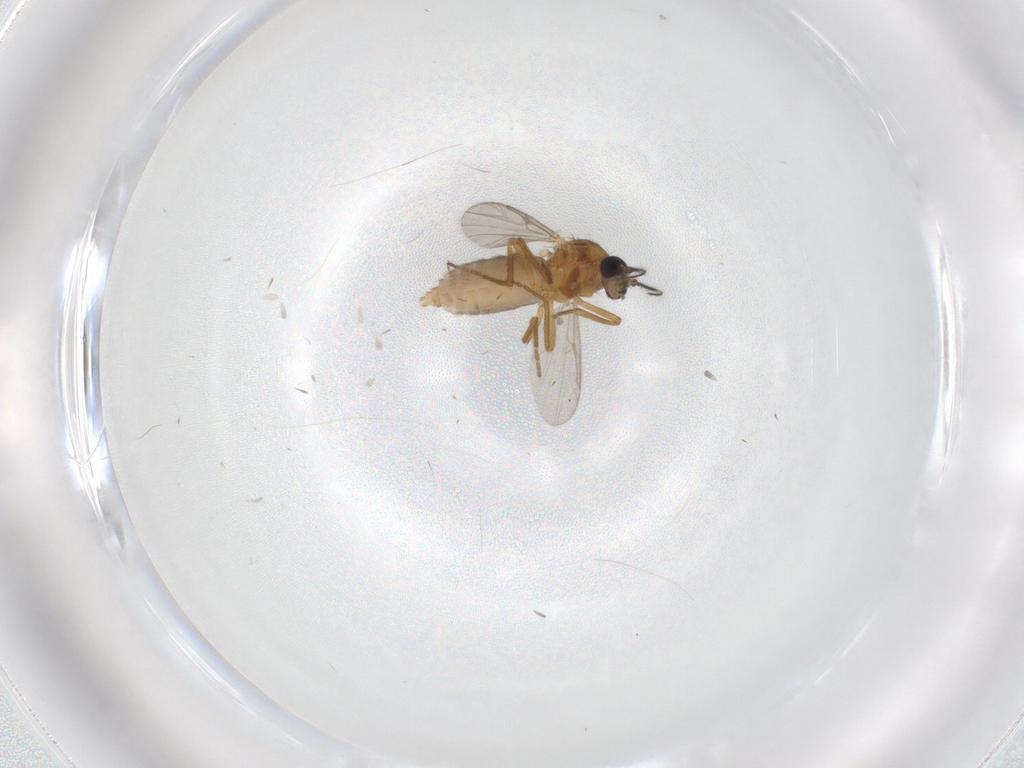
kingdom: Animalia
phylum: Arthropoda
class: Insecta
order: Diptera
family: Ceratopogonidae
